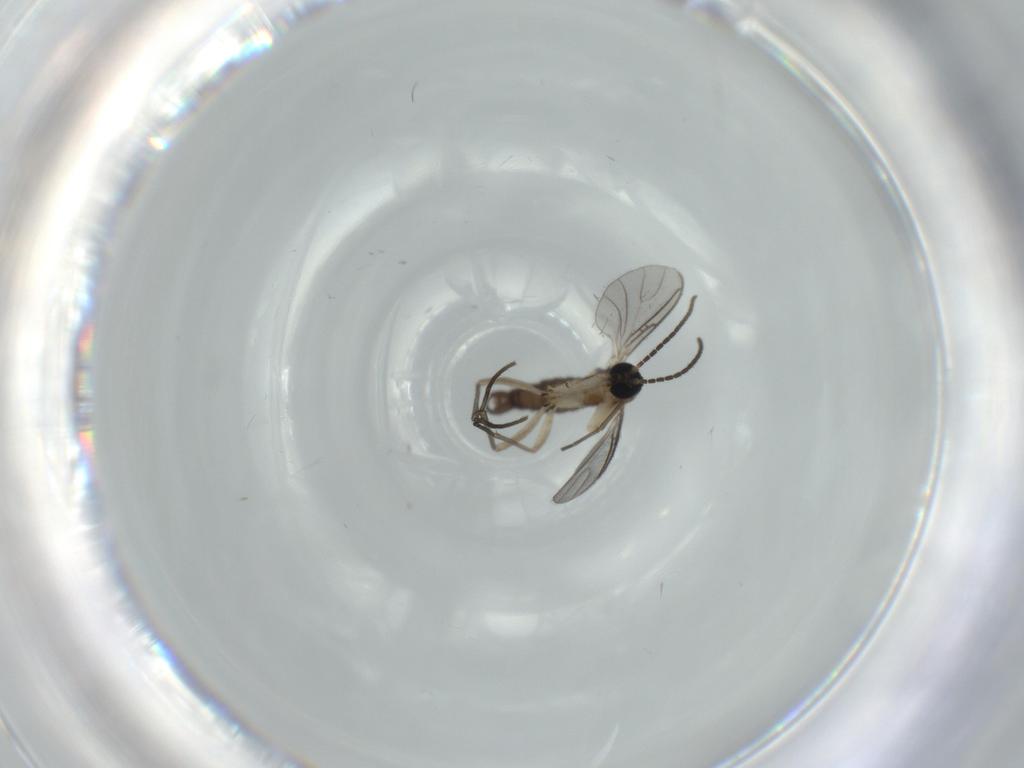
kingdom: Animalia
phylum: Arthropoda
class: Insecta
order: Diptera
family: Sciaridae
